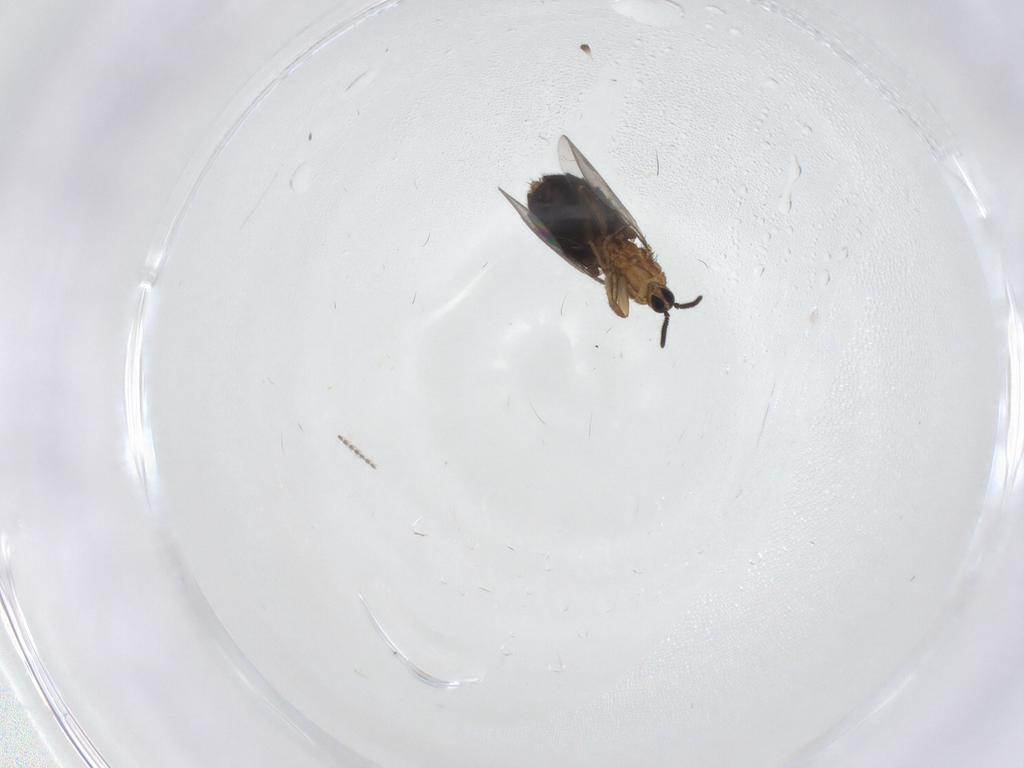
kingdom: Animalia
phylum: Arthropoda
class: Insecta
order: Diptera
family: Scatopsidae
